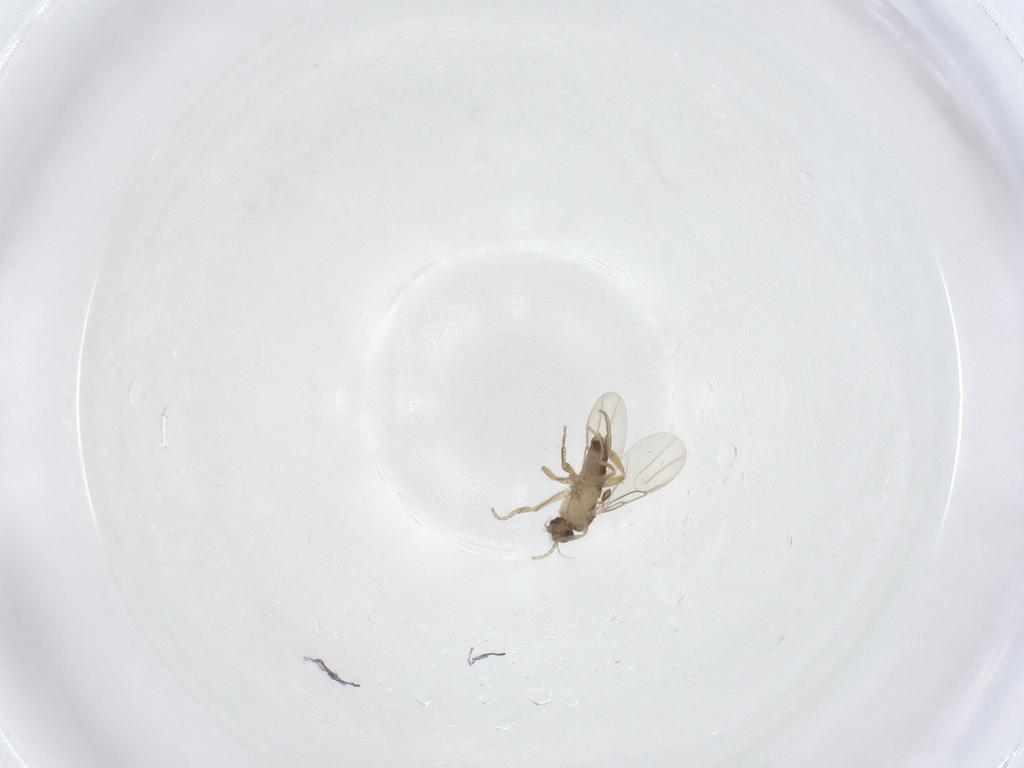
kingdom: Animalia
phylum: Arthropoda
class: Insecta
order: Diptera
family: Phoridae
